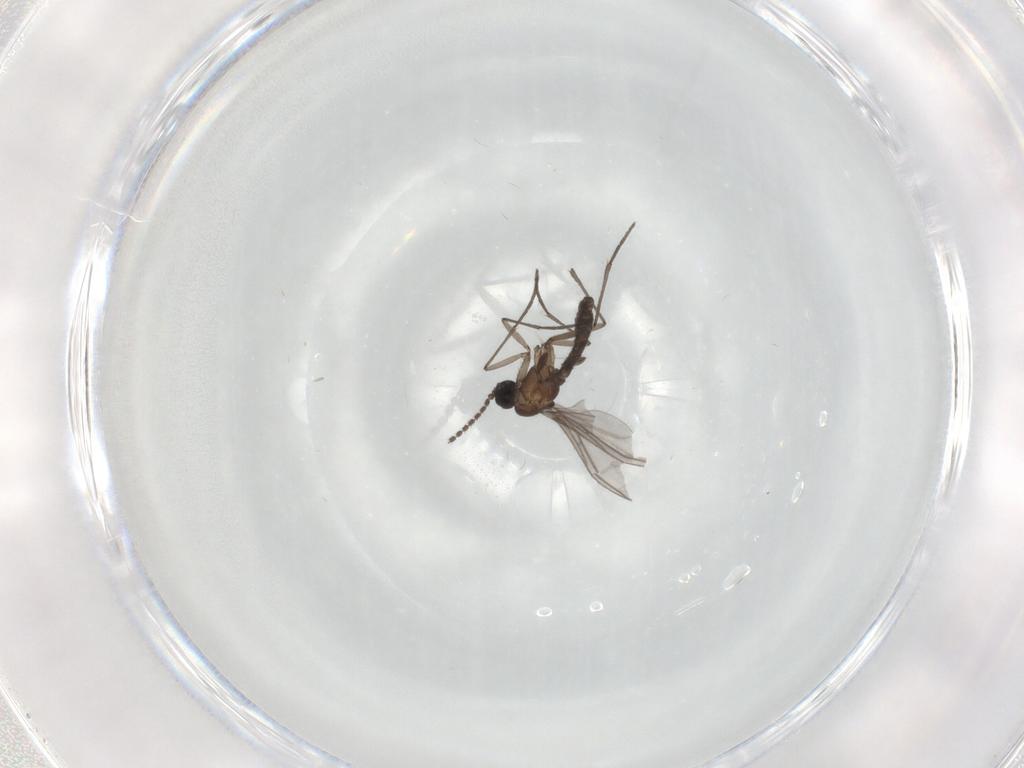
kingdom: Animalia
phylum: Arthropoda
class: Insecta
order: Diptera
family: Sciaridae
